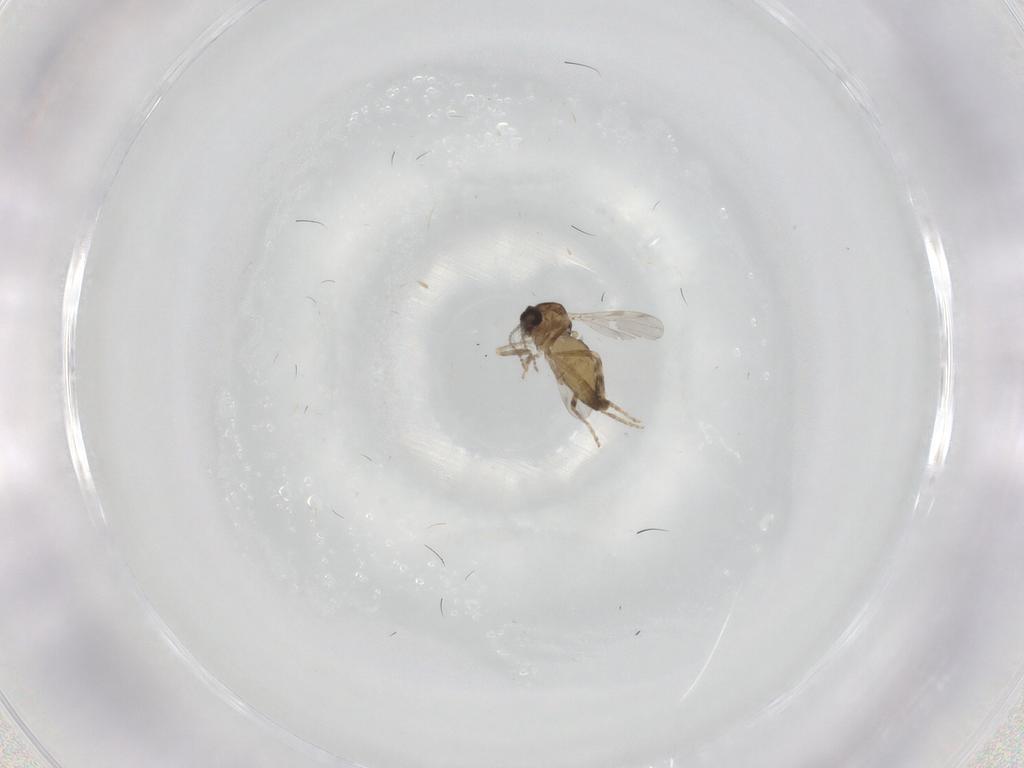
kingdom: Animalia
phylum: Arthropoda
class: Insecta
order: Diptera
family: Ceratopogonidae
